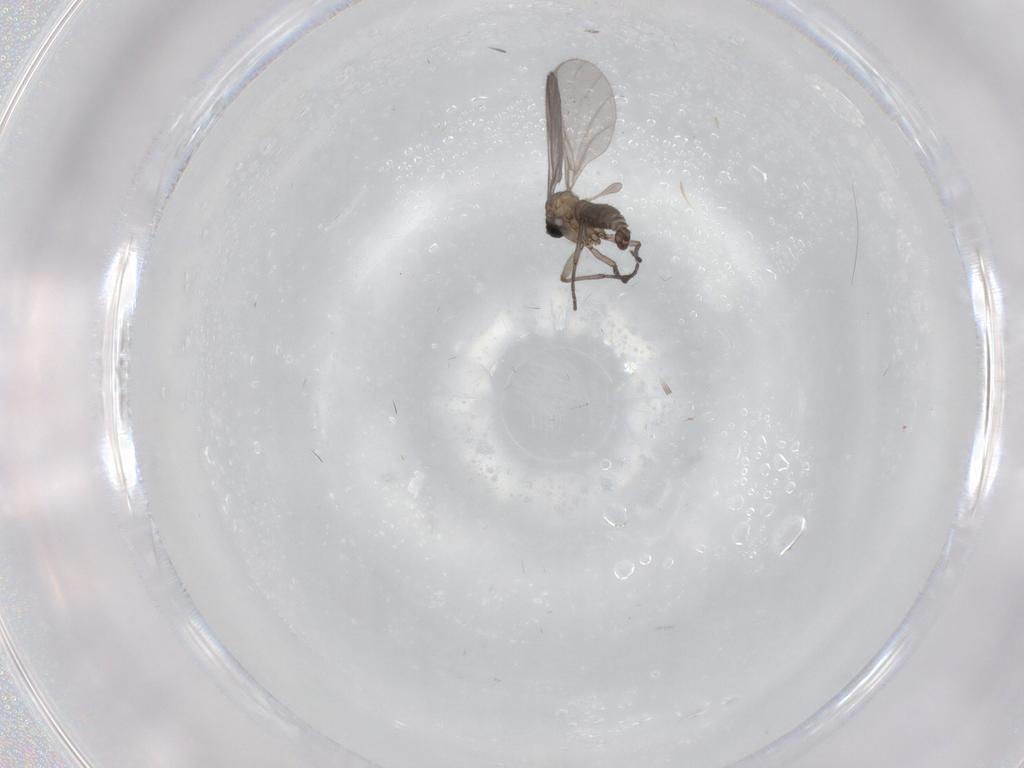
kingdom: Animalia
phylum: Arthropoda
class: Insecta
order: Diptera
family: Sciaridae
